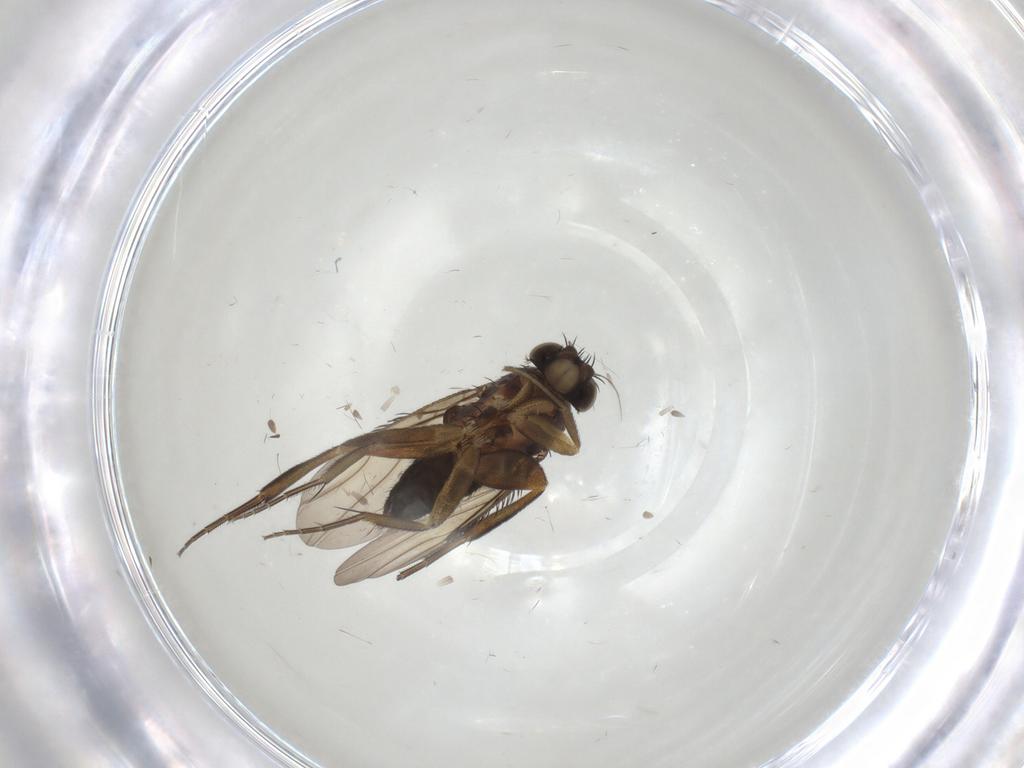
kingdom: Animalia
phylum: Arthropoda
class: Insecta
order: Diptera
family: Phoridae
